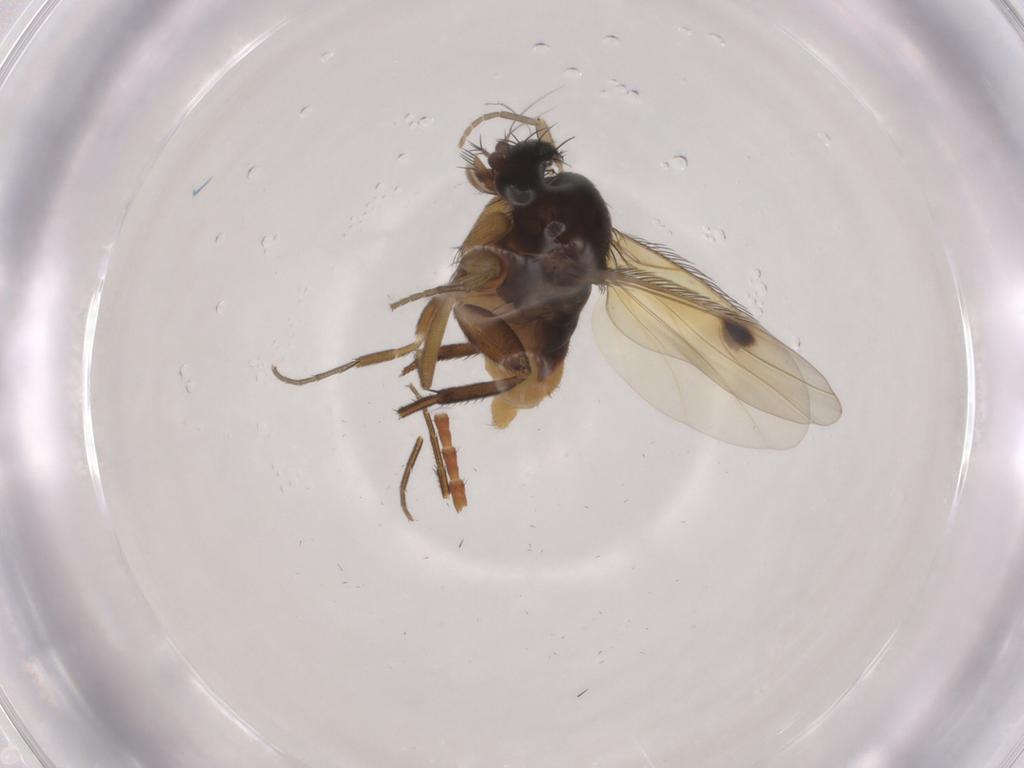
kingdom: Animalia
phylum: Arthropoda
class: Insecta
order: Diptera
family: Phoridae
